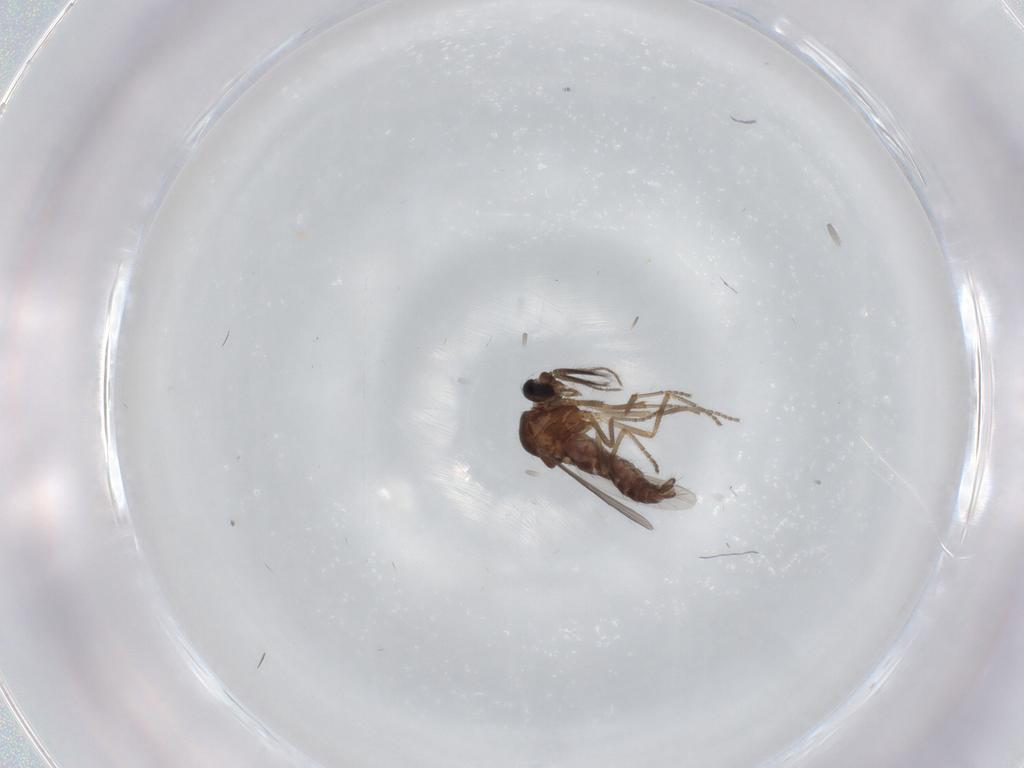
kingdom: Animalia
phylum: Arthropoda
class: Insecta
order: Diptera
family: Ceratopogonidae
